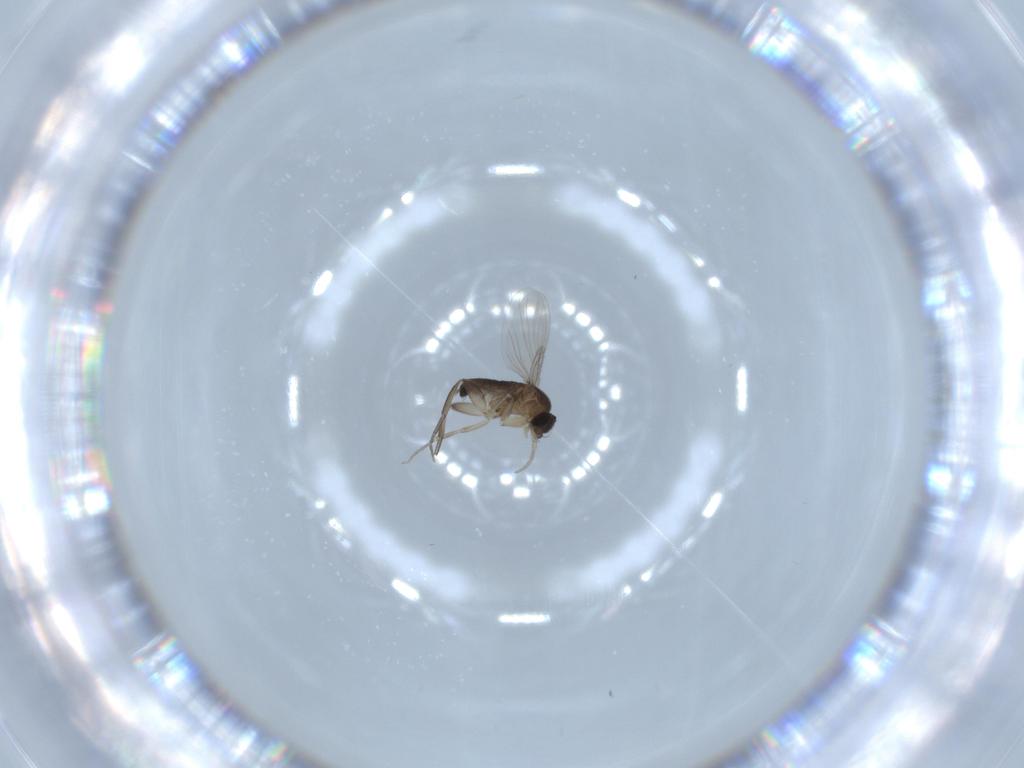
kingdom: Animalia
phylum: Arthropoda
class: Insecta
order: Diptera
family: Phoridae
